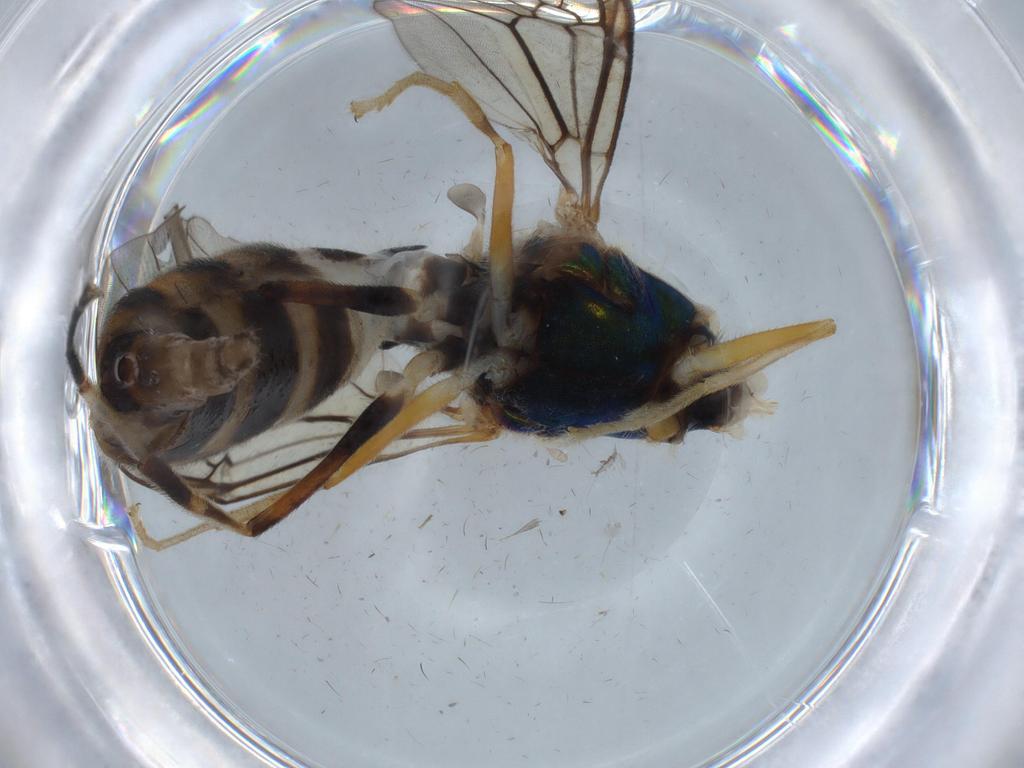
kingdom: Animalia
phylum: Arthropoda
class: Insecta
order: Diptera
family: Stratiomyidae
